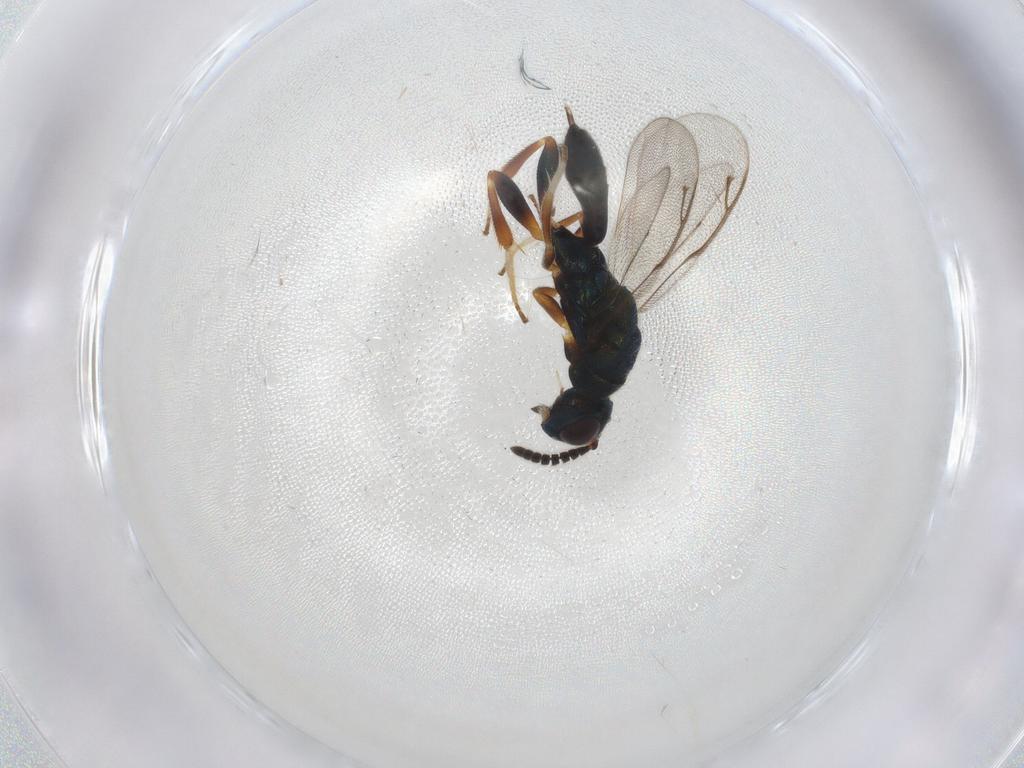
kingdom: Animalia
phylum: Arthropoda
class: Insecta
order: Hymenoptera
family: Cleonyminae
